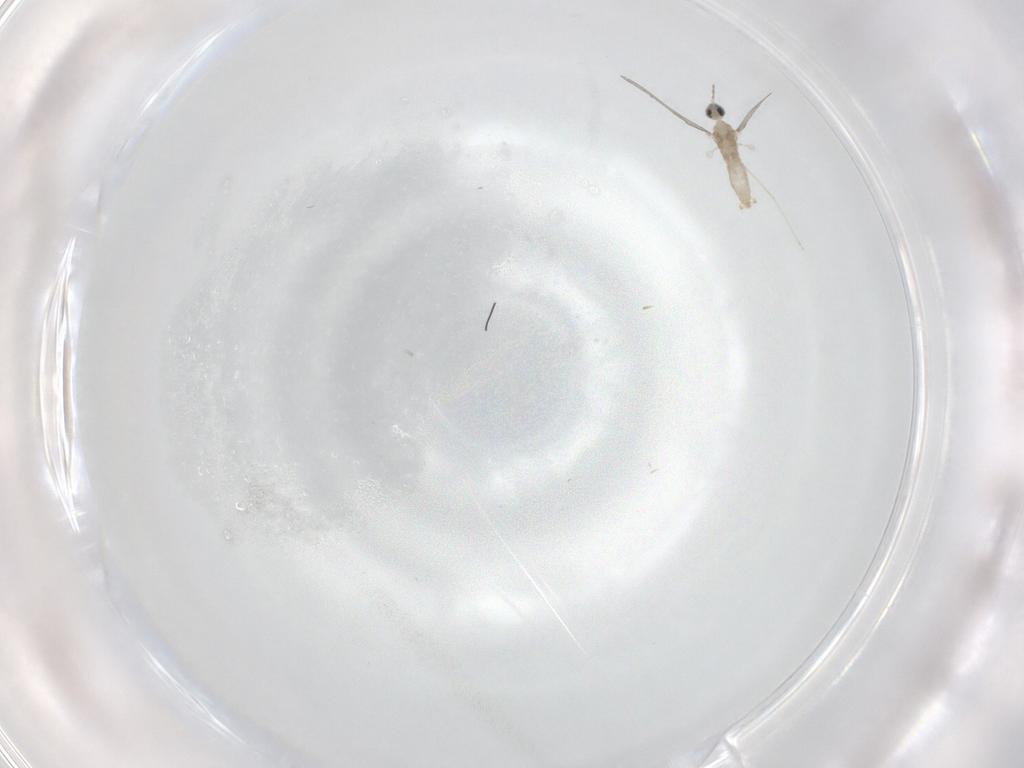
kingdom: Animalia
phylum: Arthropoda
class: Insecta
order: Diptera
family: Cecidomyiidae
